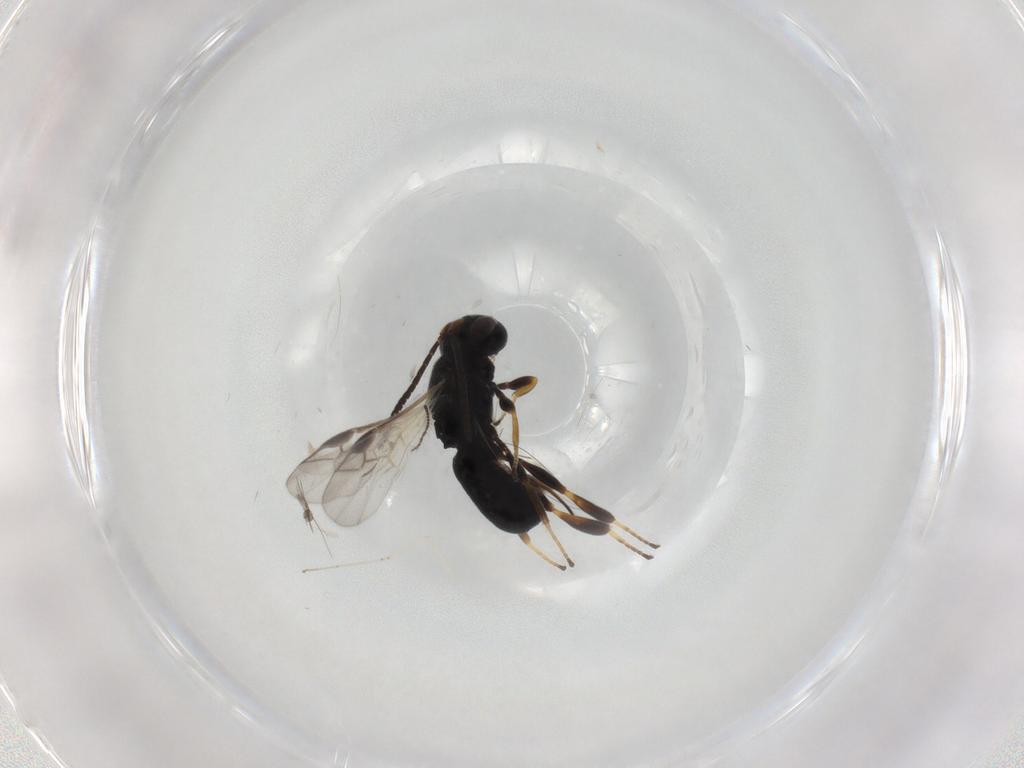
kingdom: Animalia
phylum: Arthropoda
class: Insecta
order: Hymenoptera
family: Braconidae
